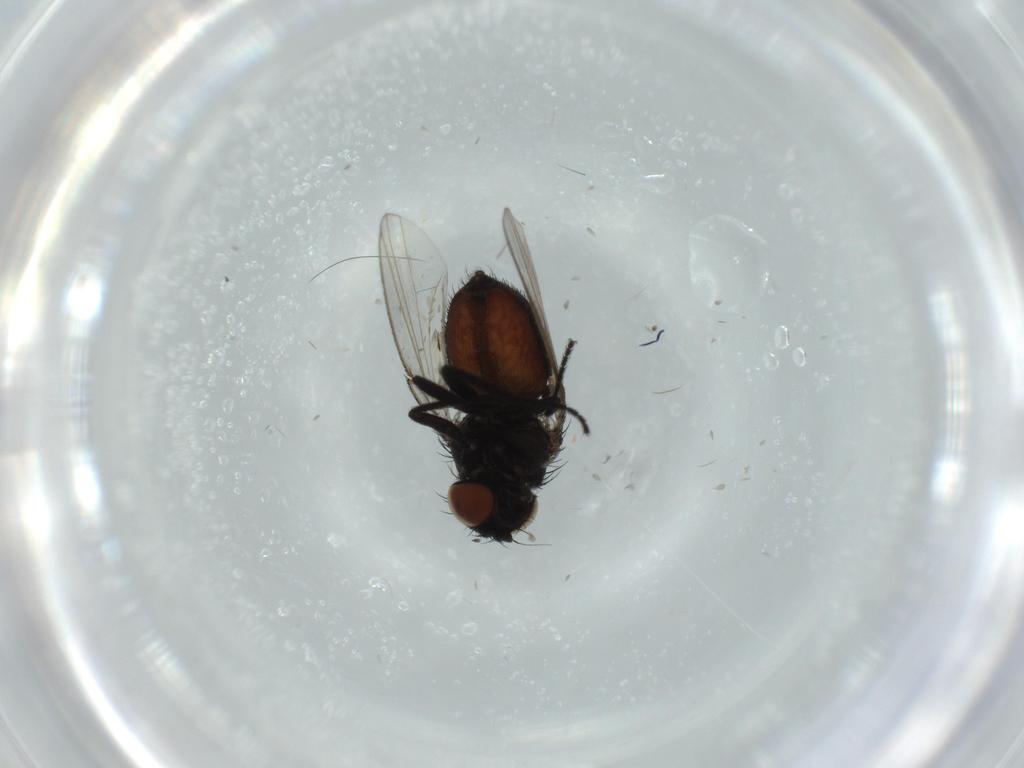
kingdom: Animalia
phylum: Arthropoda
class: Insecta
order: Diptera
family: Milichiidae
